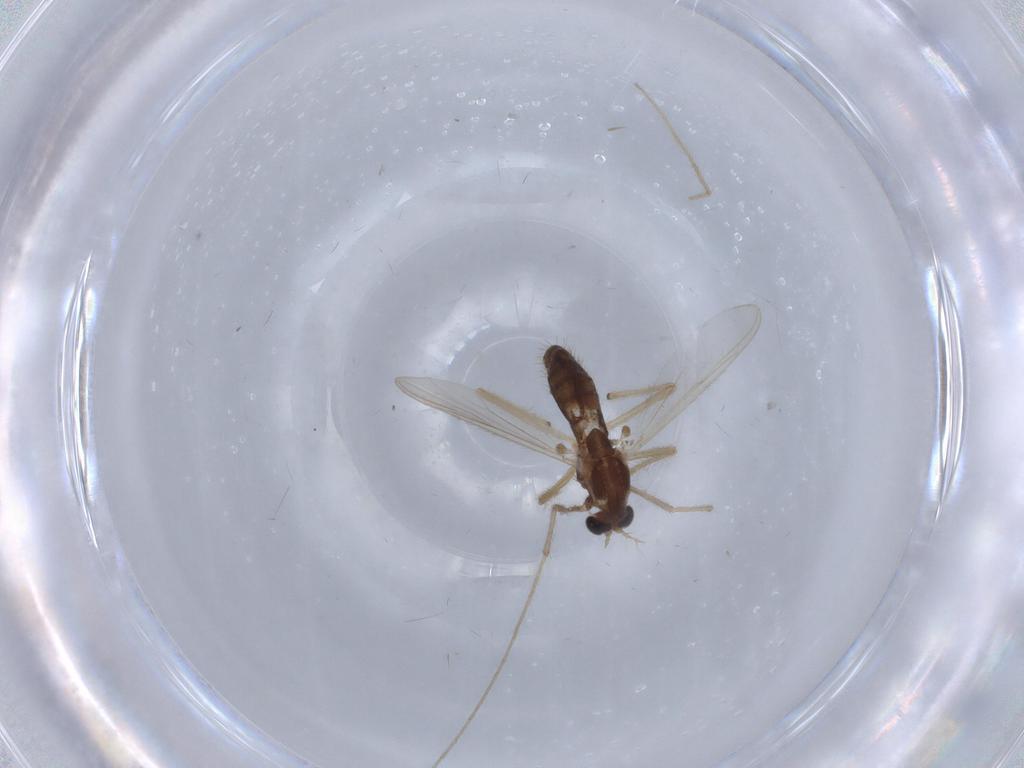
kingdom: Animalia
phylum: Arthropoda
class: Insecta
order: Diptera
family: Chironomidae
